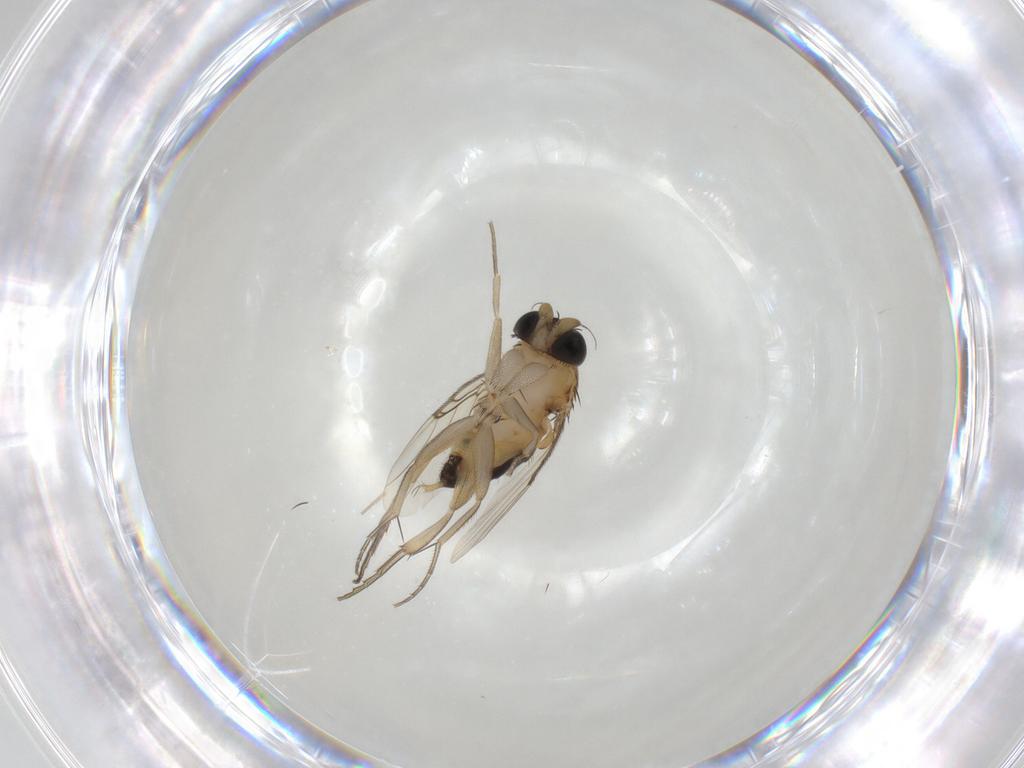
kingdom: Animalia
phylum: Arthropoda
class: Insecta
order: Diptera
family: Phoridae
